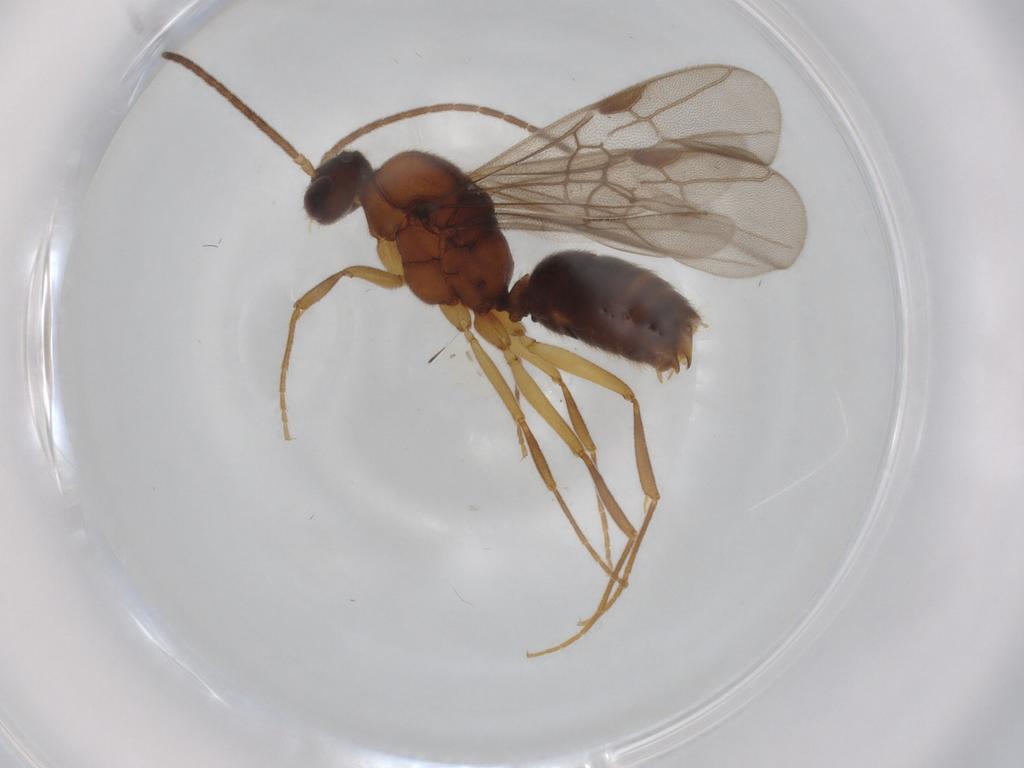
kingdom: Animalia
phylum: Arthropoda
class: Insecta
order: Hymenoptera
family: Formicidae
